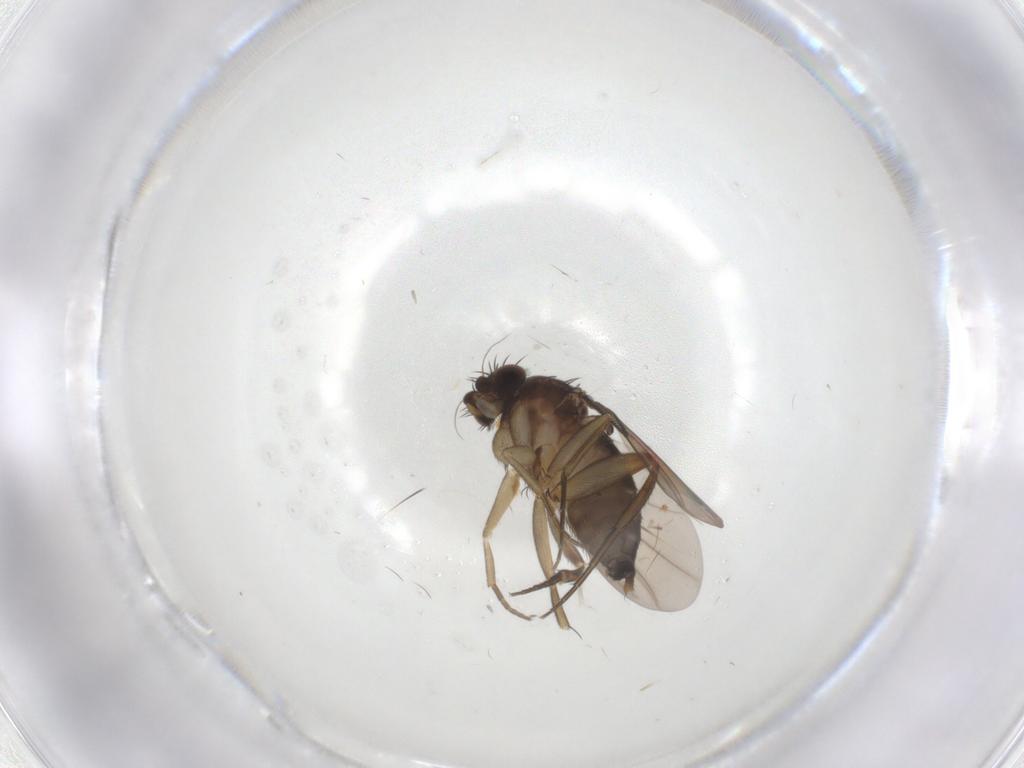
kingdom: Animalia
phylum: Arthropoda
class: Insecta
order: Diptera
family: Phoridae
